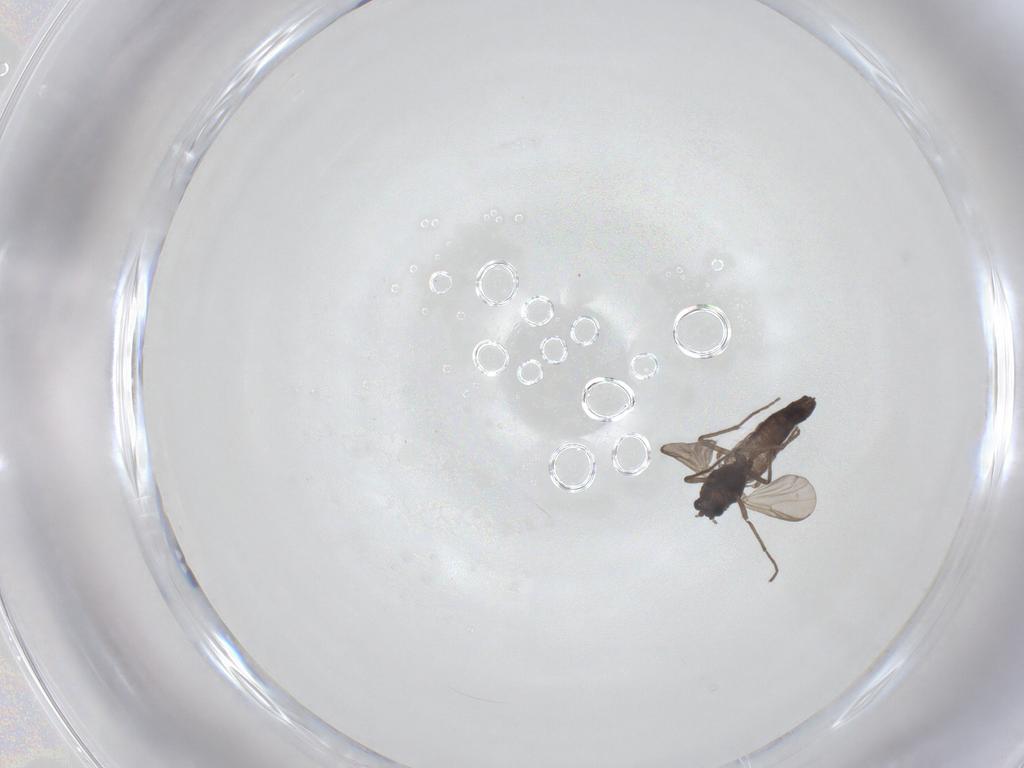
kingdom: Animalia
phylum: Arthropoda
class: Insecta
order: Diptera
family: Chironomidae
